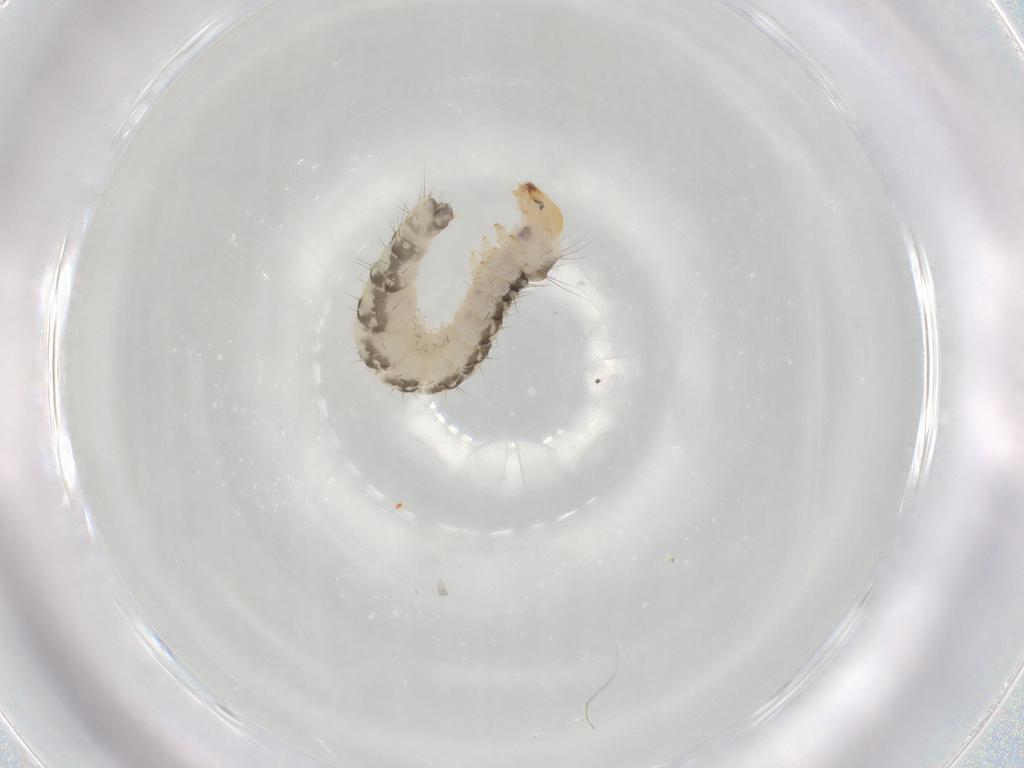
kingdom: Animalia
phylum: Arthropoda
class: Insecta
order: Lepidoptera
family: Bucculatricidae
